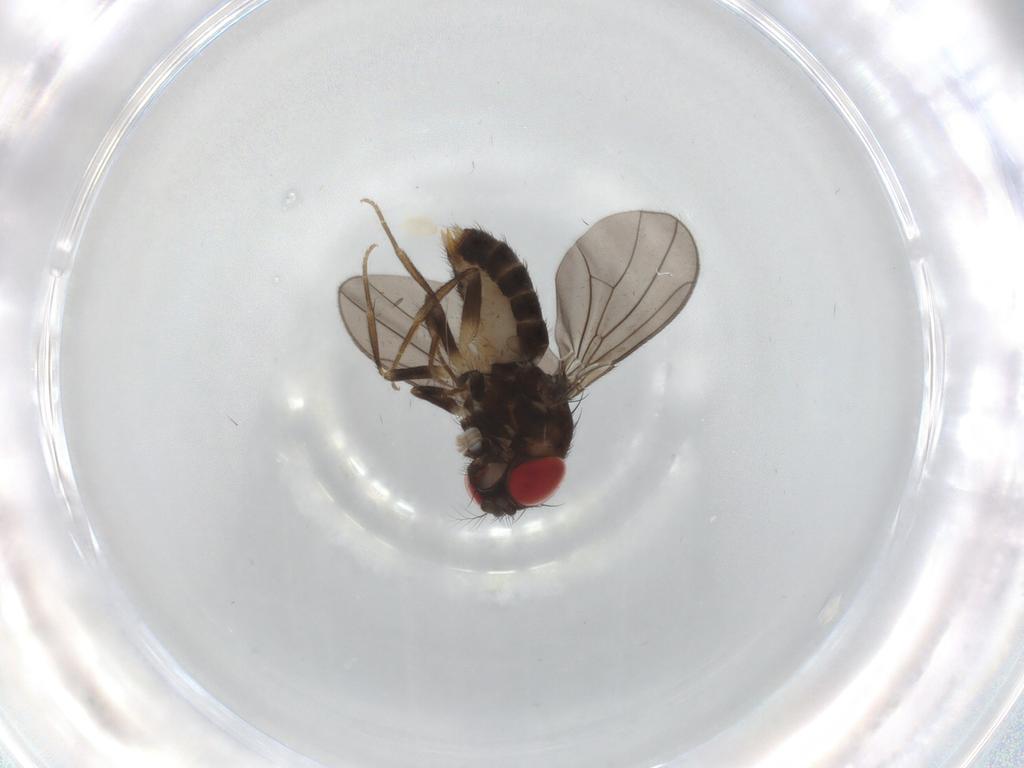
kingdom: Animalia
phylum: Arthropoda
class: Insecta
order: Diptera
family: Drosophilidae
